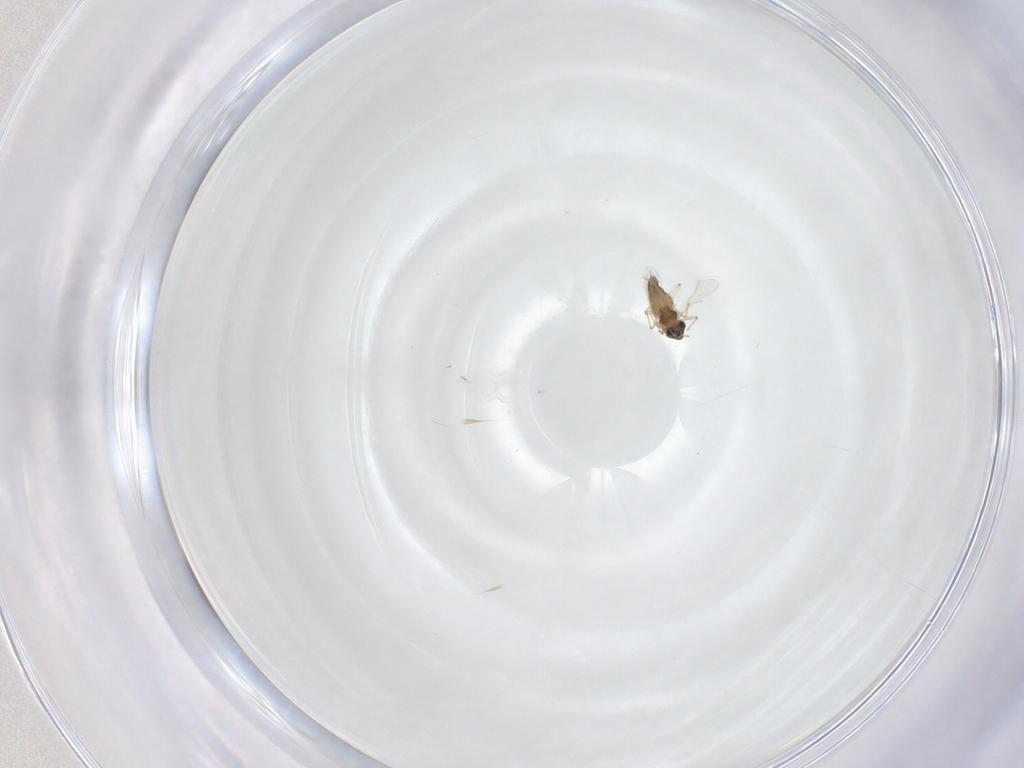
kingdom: Animalia
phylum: Arthropoda
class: Insecta
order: Diptera
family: Chironomidae
